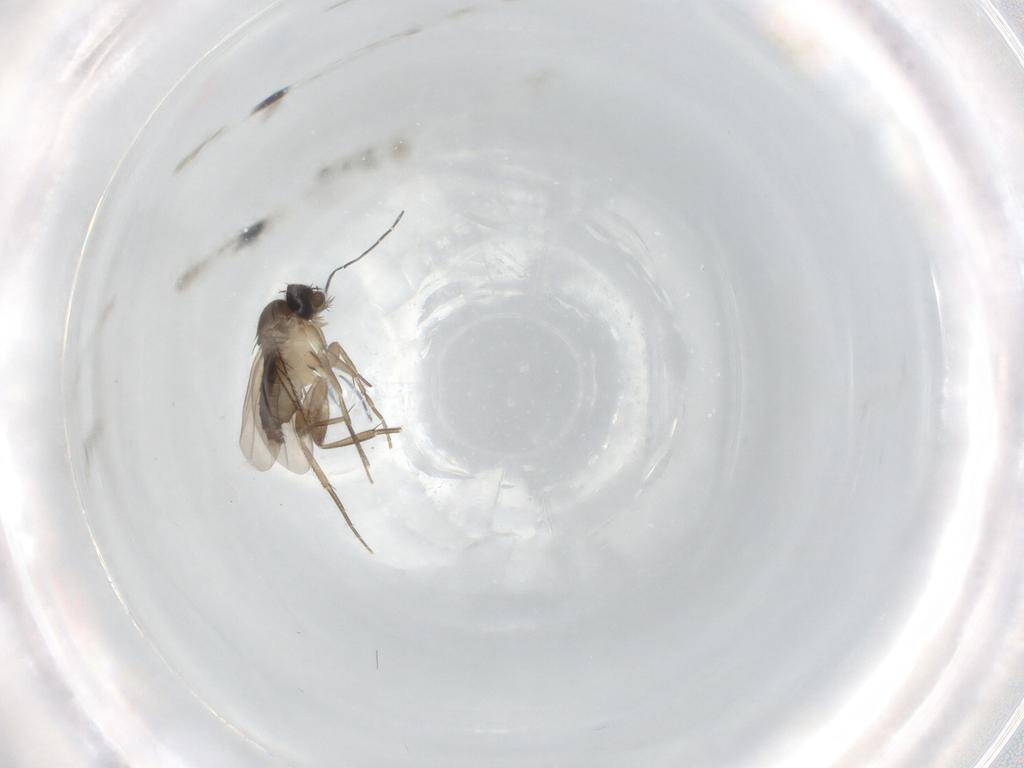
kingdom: Animalia
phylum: Arthropoda
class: Insecta
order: Diptera
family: Phoridae
